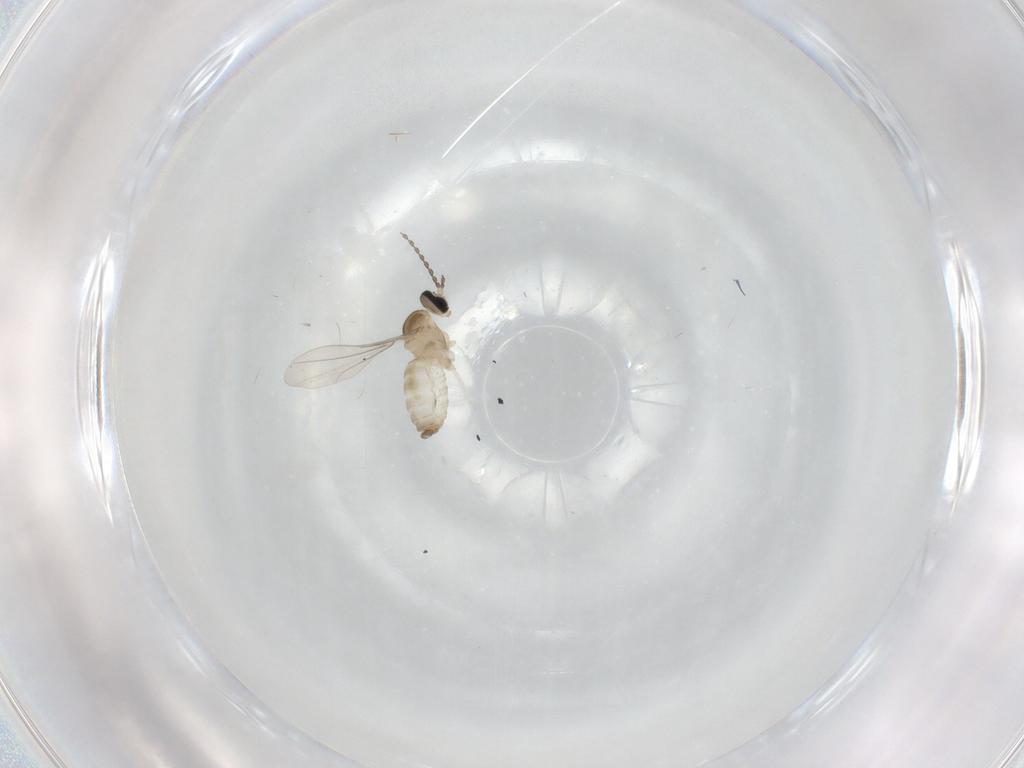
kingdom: Animalia
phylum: Arthropoda
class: Insecta
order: Diptera
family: Cecidomyiidae
